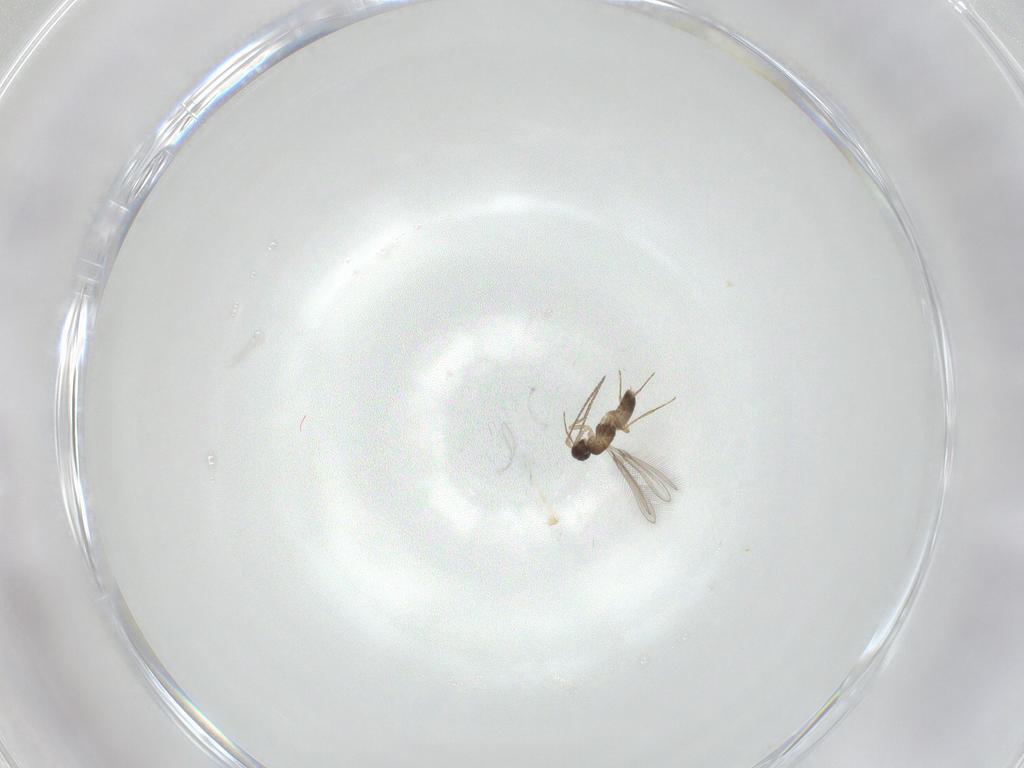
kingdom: Animalia
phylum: Arthropoda
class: Insecta
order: Hymenoptera
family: Mymaridae
